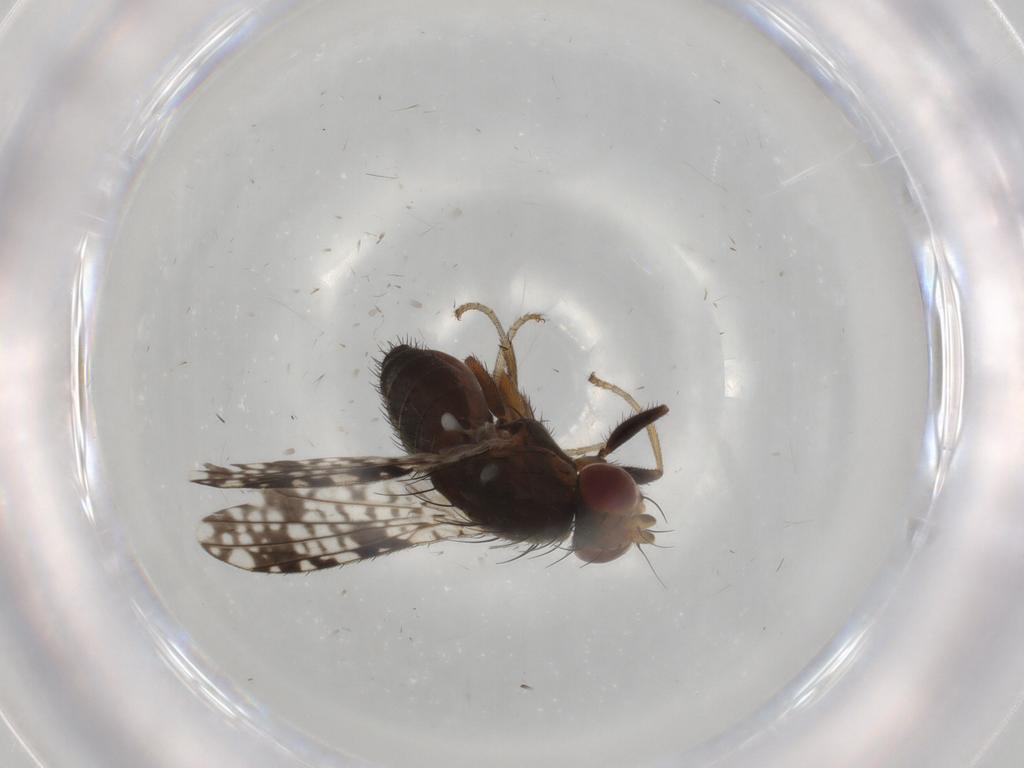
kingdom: Animalia
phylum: Arthropoda
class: Insecta
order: Diptera
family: Tephritidae
